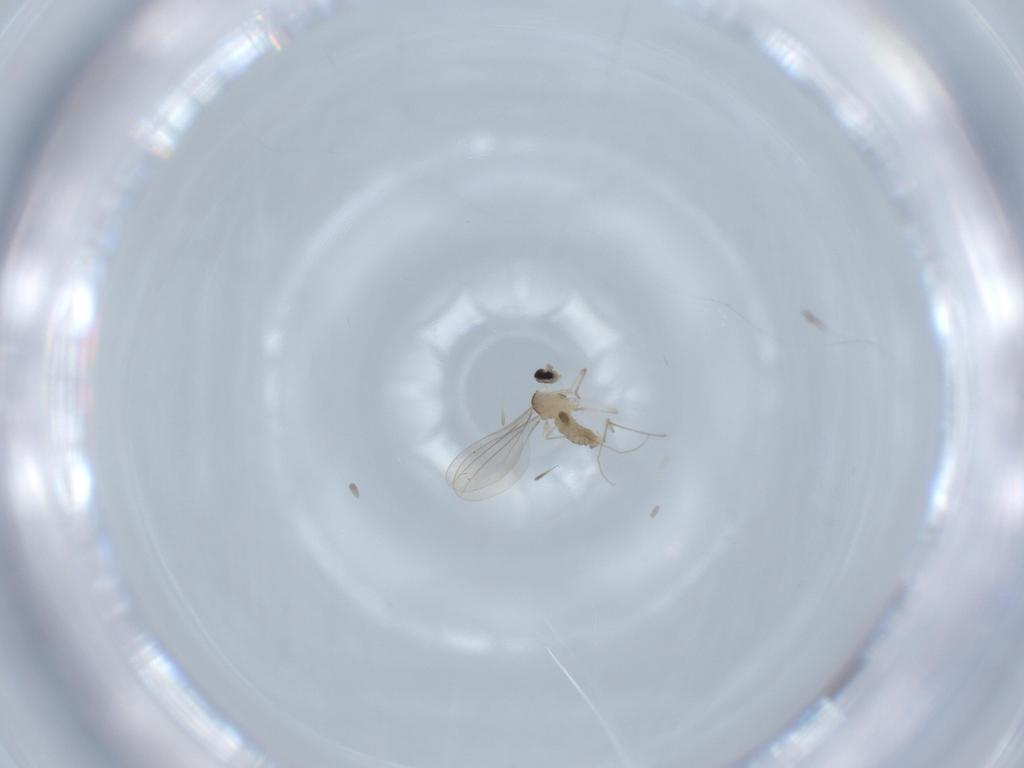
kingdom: Animalia
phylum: Arthropoda
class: Insecta
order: Diptera
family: Cecidomyiidae
